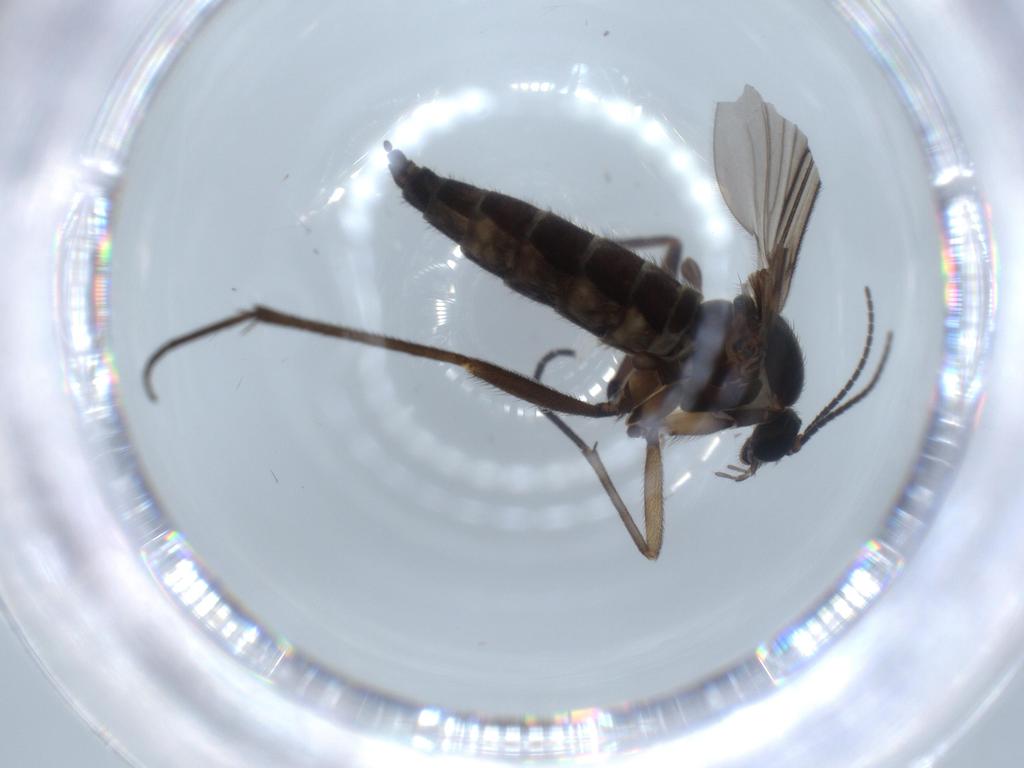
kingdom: Animalia
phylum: Arthropoda
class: Insecta
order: Diptera
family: Sciaridae
